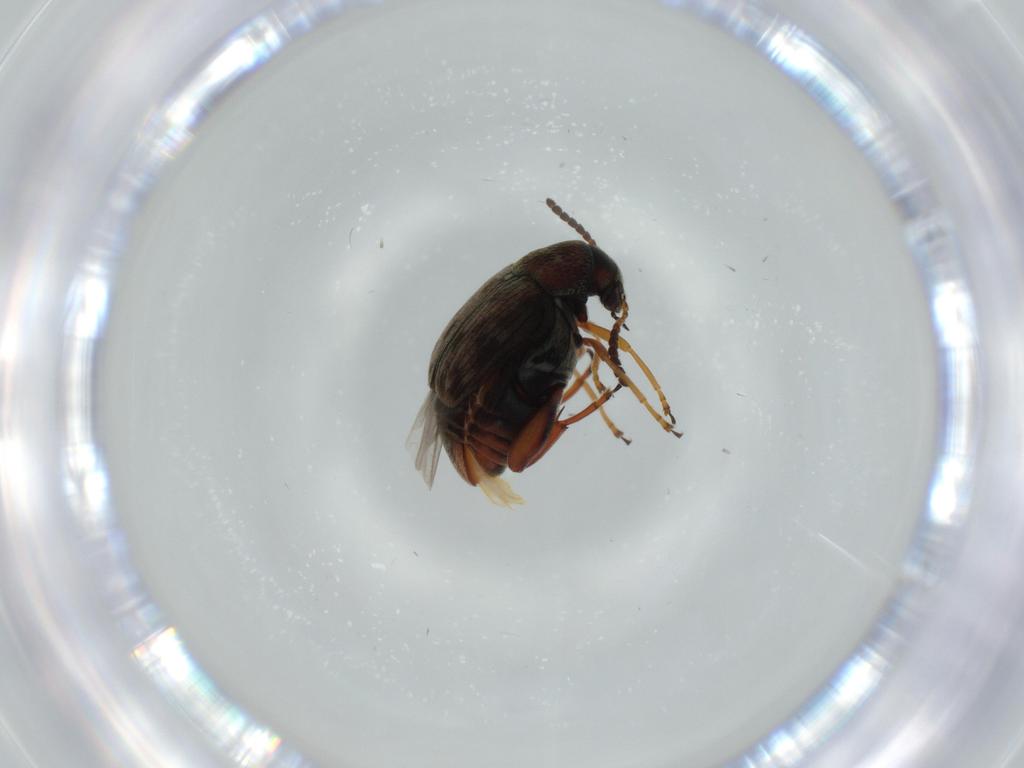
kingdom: Animalia
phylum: Arthropoda
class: Insecta
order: Coleoptera
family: Chrysomelidae
